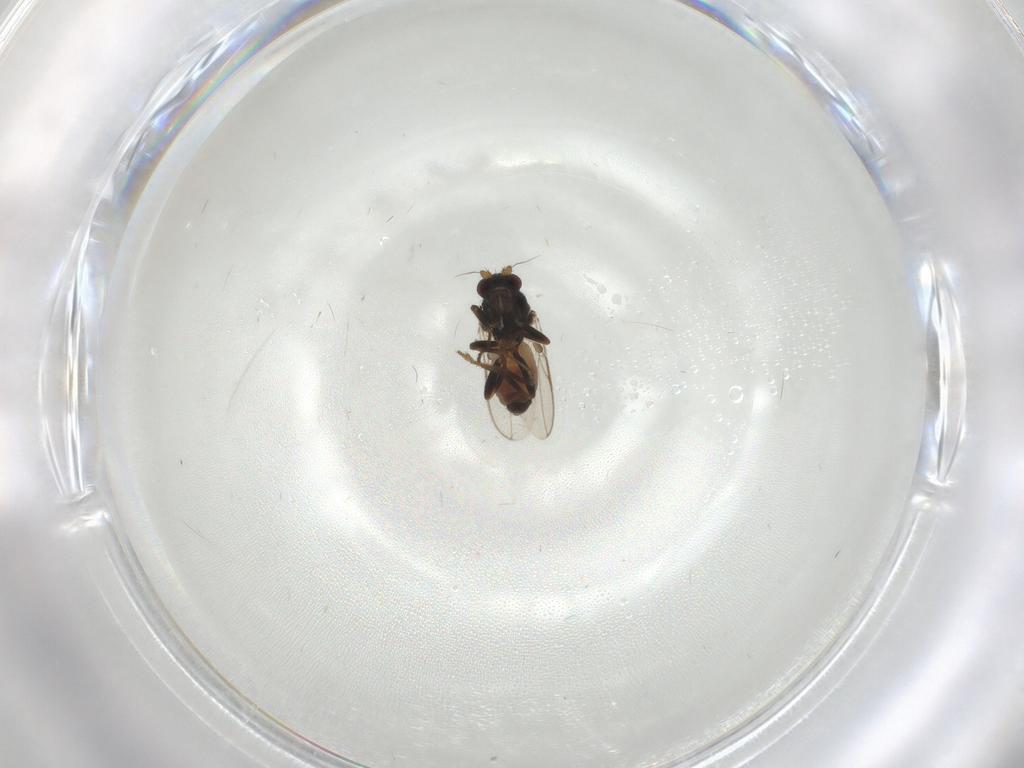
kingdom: Animalia
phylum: Arthropoda
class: Insecta
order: Diptera
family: Sphaeroceridae
